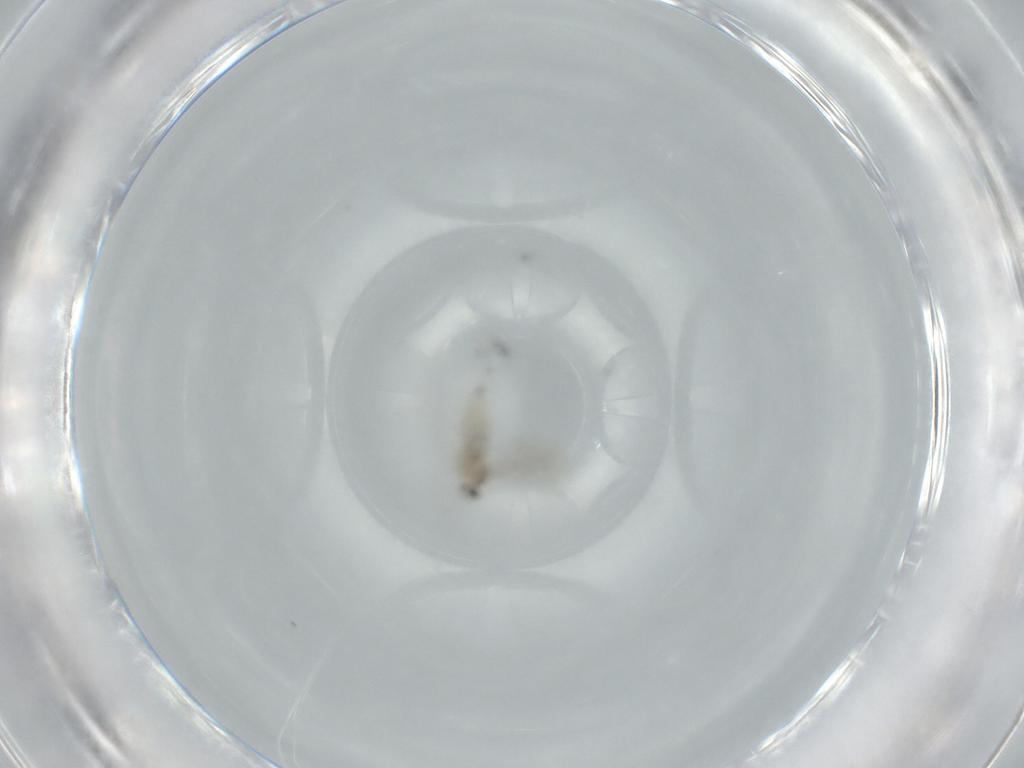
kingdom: Animalia
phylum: Arthropoda
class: Insecta
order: Diptera
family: Cecidomyiidae
